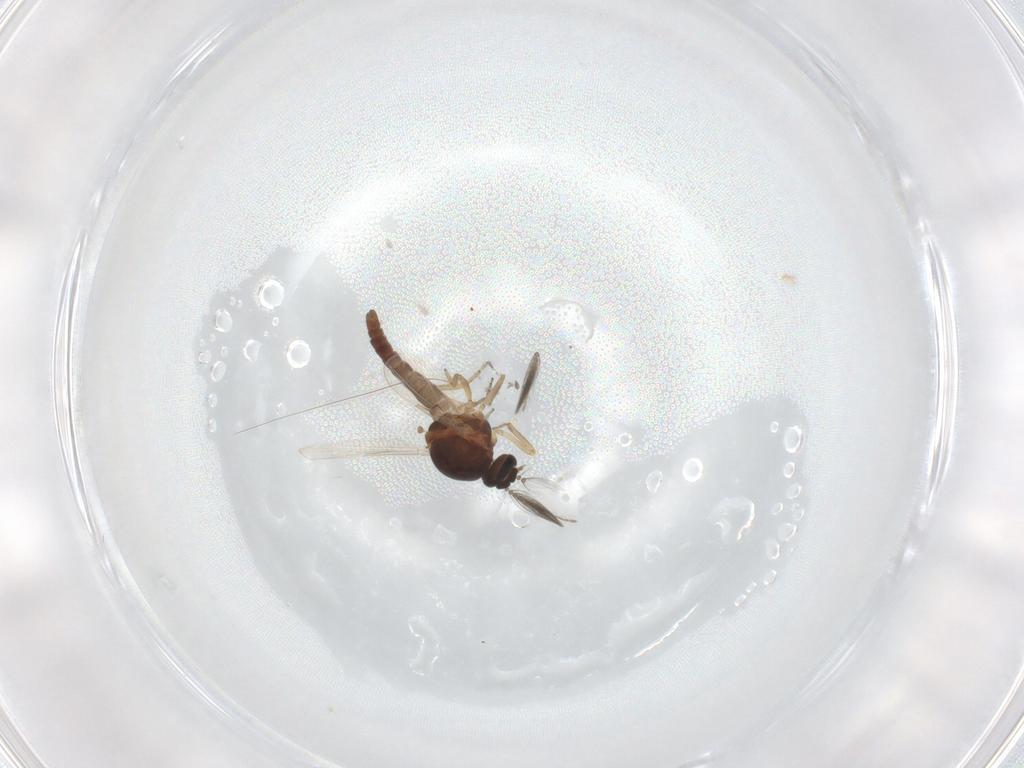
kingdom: Animalia
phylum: Arthropoda
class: Insecta
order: Diptera
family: Ceratopogonidae
